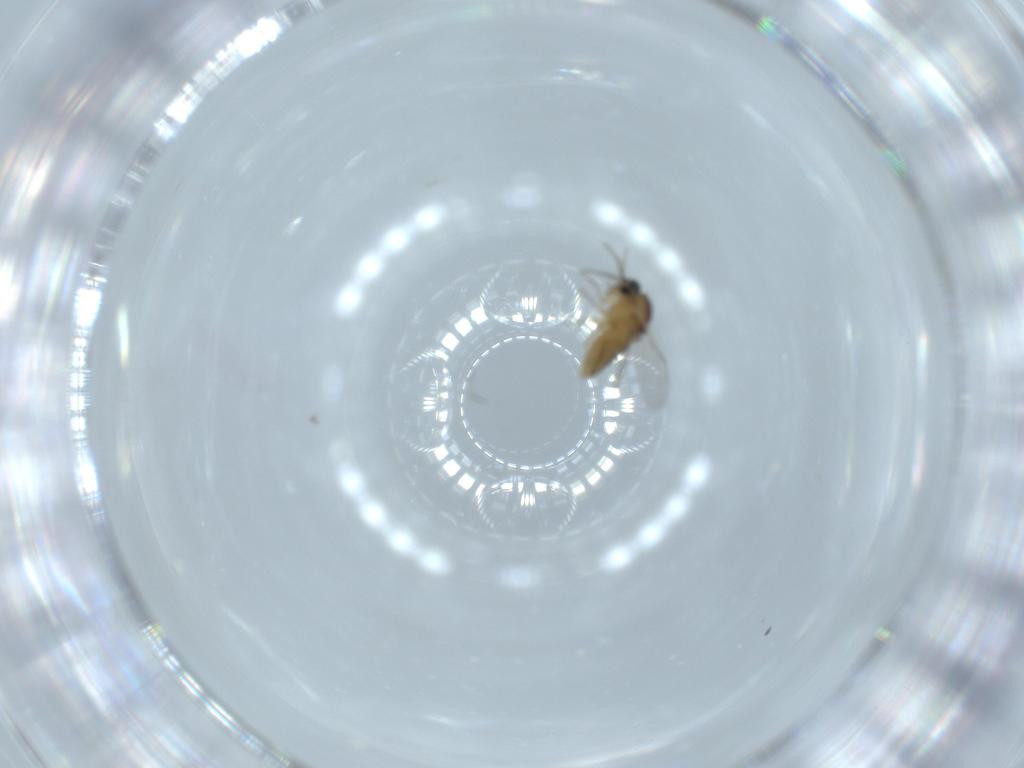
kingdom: Animalia
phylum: Arthropoda
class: Insecta
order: Diptera
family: Ceratopogonidae
